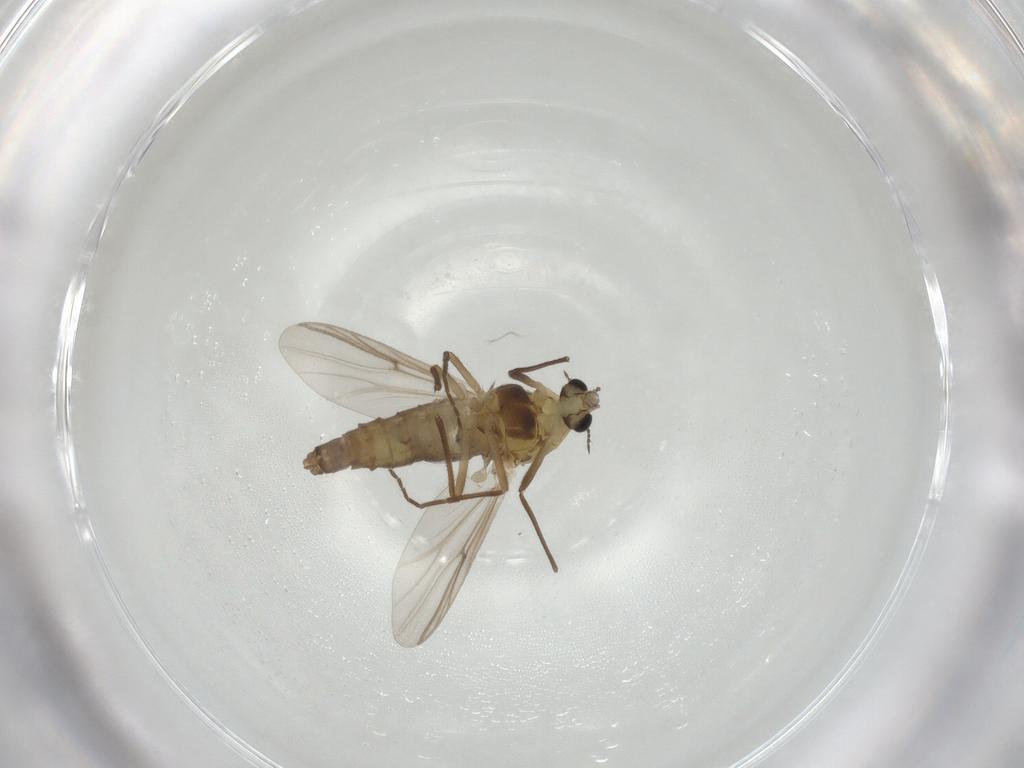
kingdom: Animalia
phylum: Arthropoda
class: Insecta
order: Diptera
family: Chironomidae
